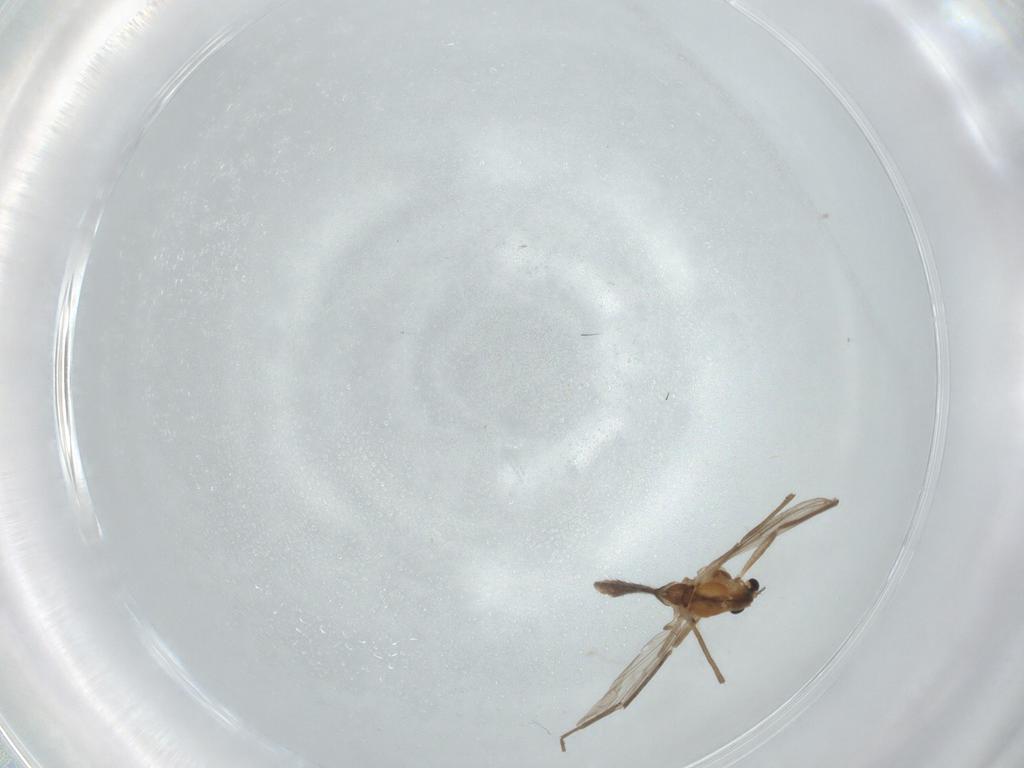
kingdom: Animalia
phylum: Arthropoda
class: Insecta
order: Diptera
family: Chironomidae
